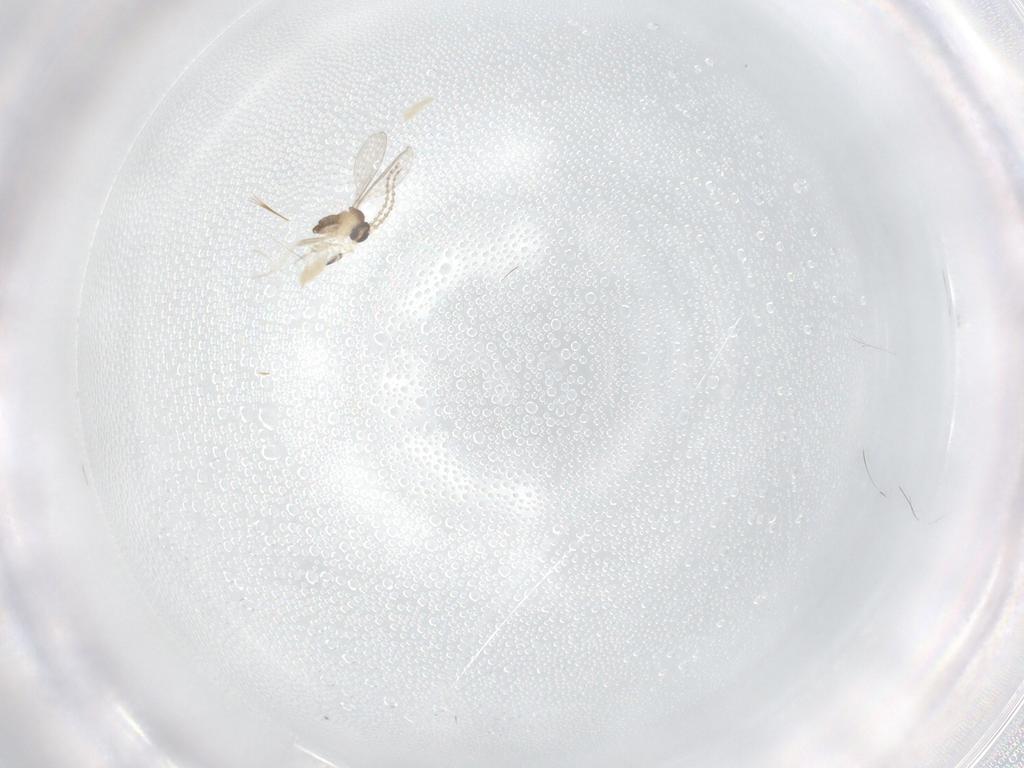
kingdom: Animalia
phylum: Arthropoda
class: Insecta
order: Diptera
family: Cecidomyiidae
